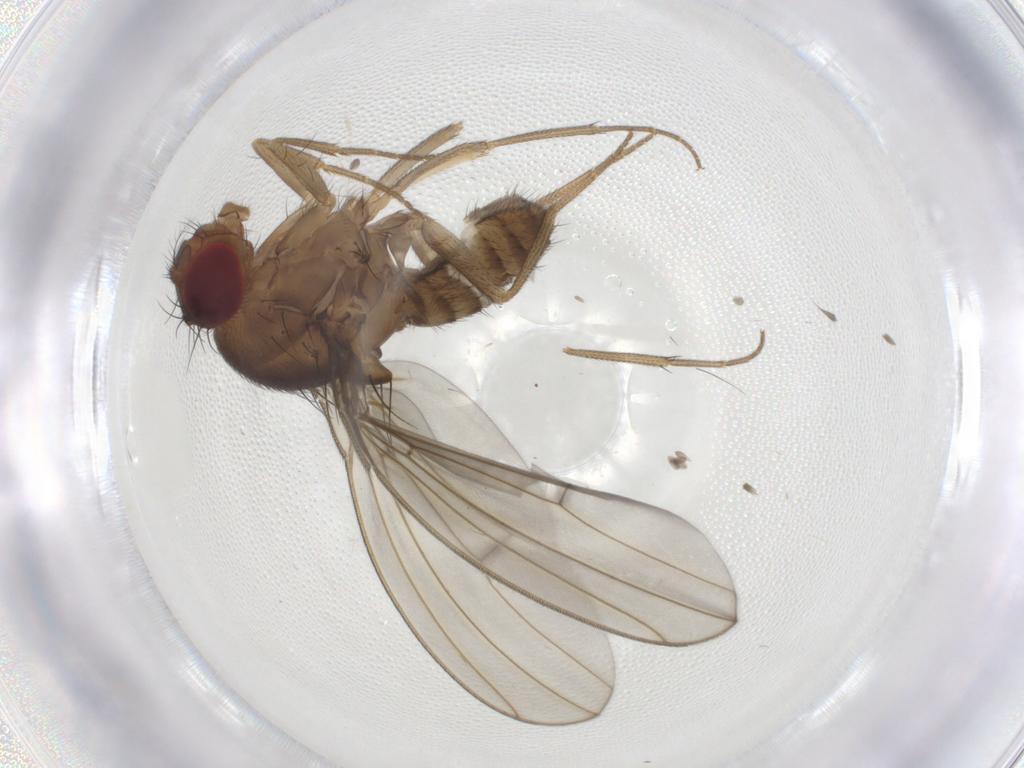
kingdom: Animalia
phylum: Arthropoda
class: Insecta
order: Diptera
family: Drosophilidae
